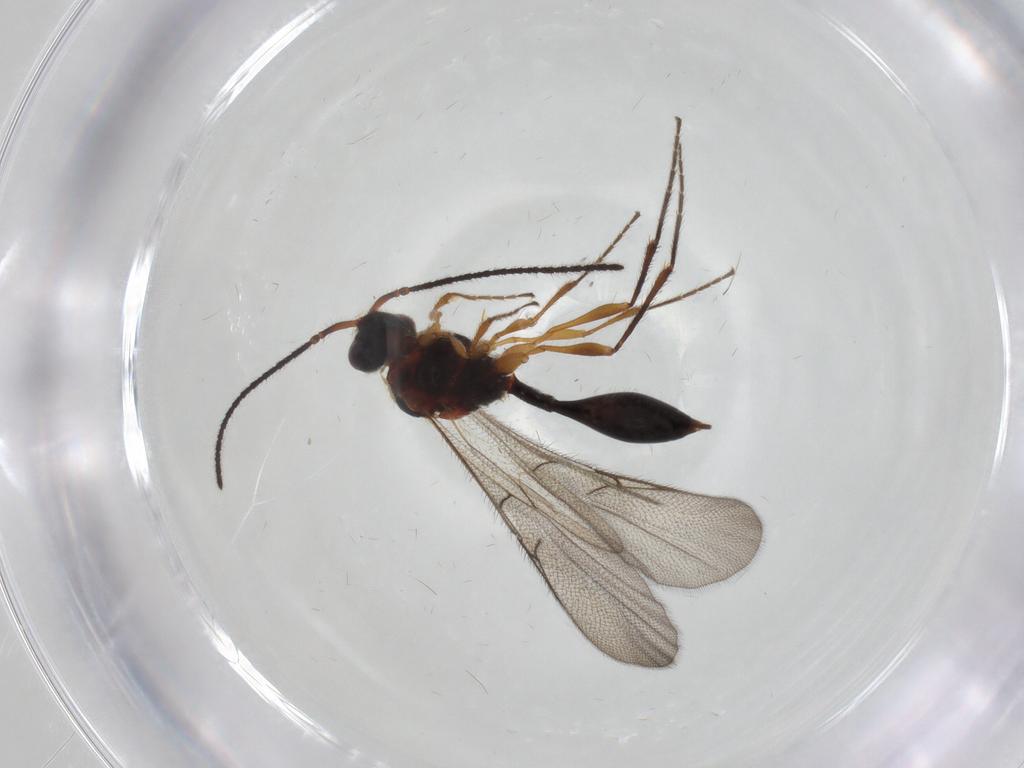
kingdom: Animalia
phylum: Arthropoda
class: Insecta
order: Hymenoptera
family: Diapriidae
